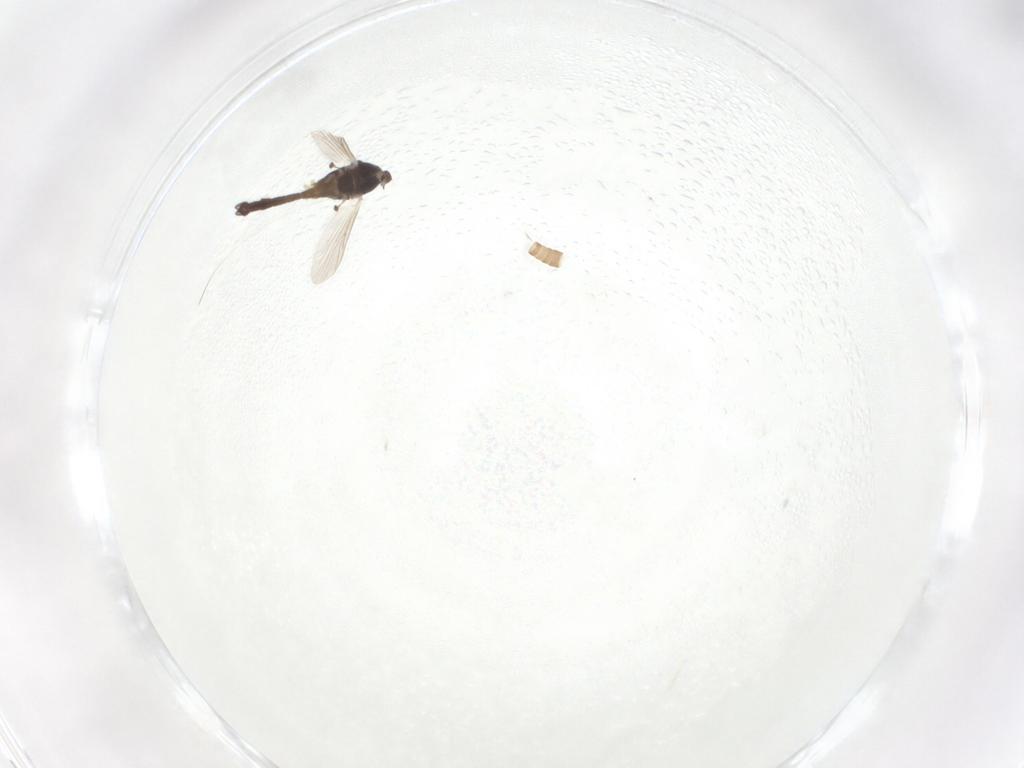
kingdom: Animalia
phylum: Arthropoda
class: Insecta
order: Diptera
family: Chironomidae
